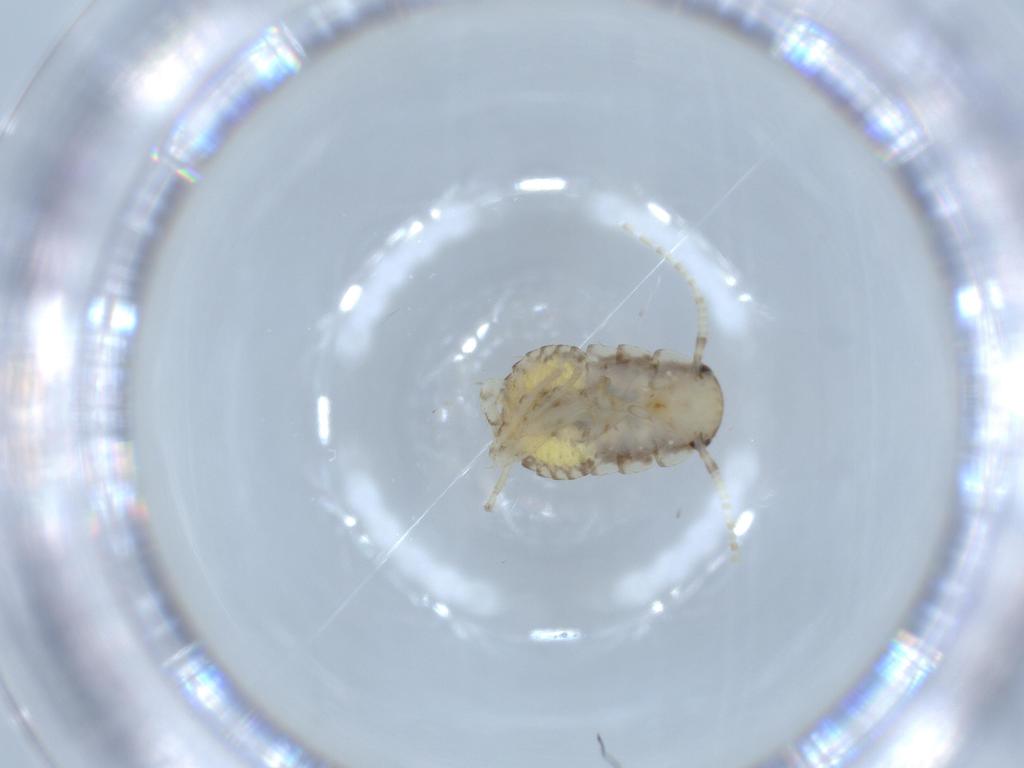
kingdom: Animalia
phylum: Arthropoda
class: Insecta
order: Blattodea
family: Ectobiidae
